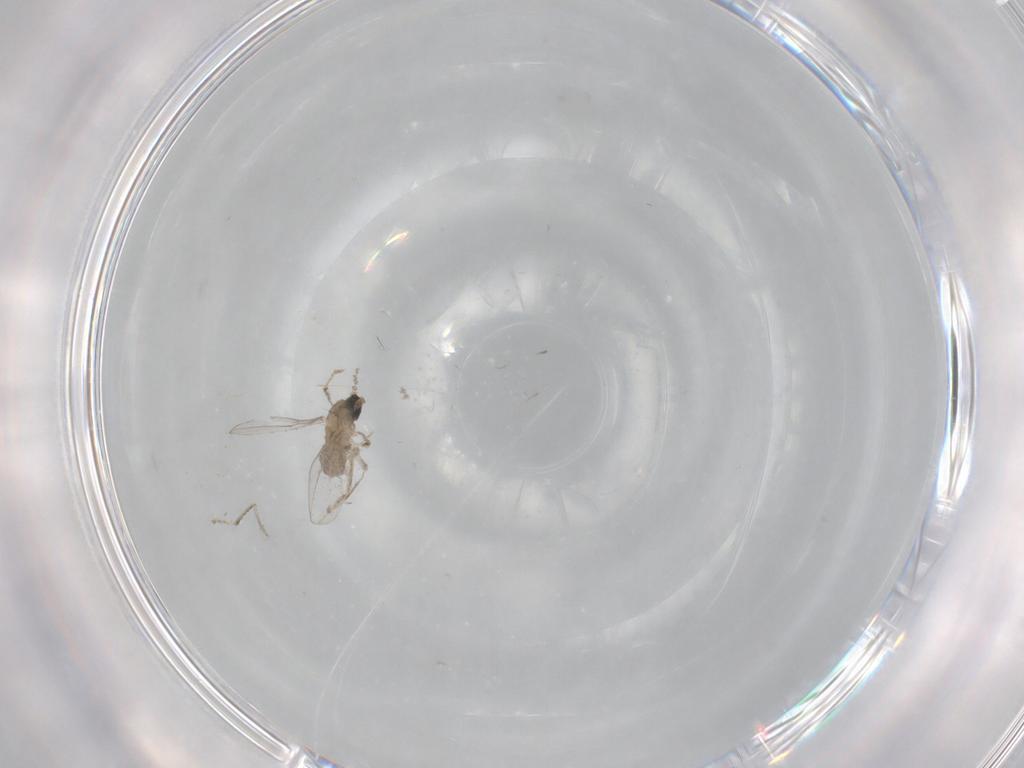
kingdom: Animalia
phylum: Arthropoda
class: Insecta
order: Diptera
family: Cecidomyiidae
